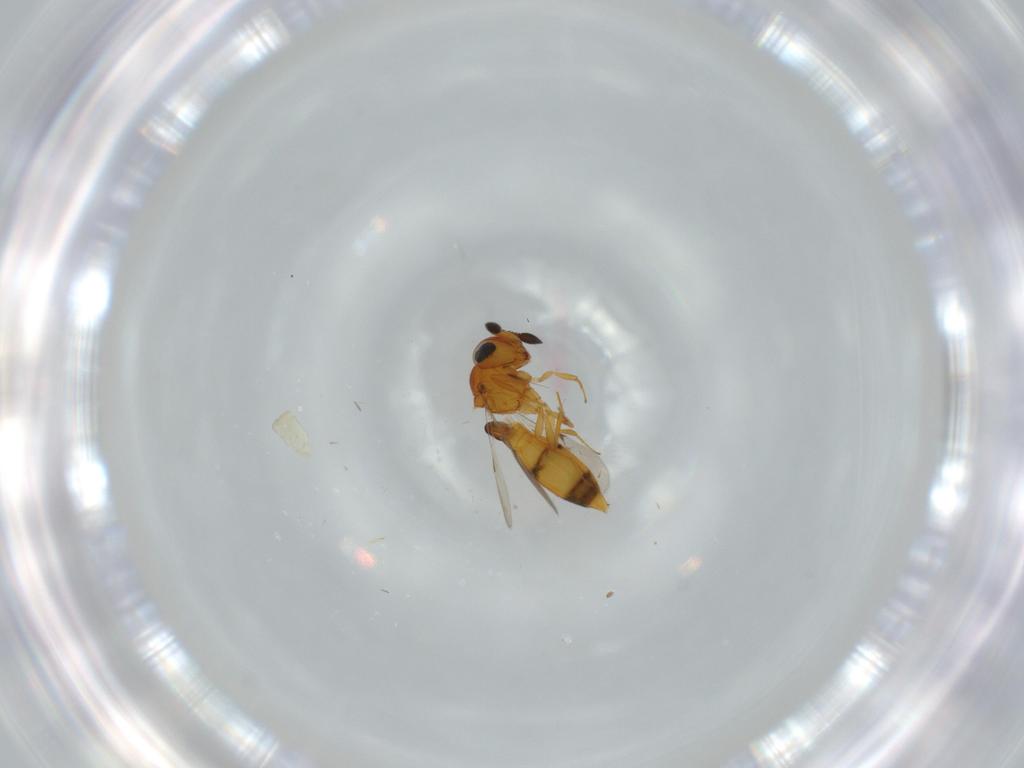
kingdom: Animalia
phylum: Arthropoda
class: Insecta
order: Hymenoptera
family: Scelionidae
